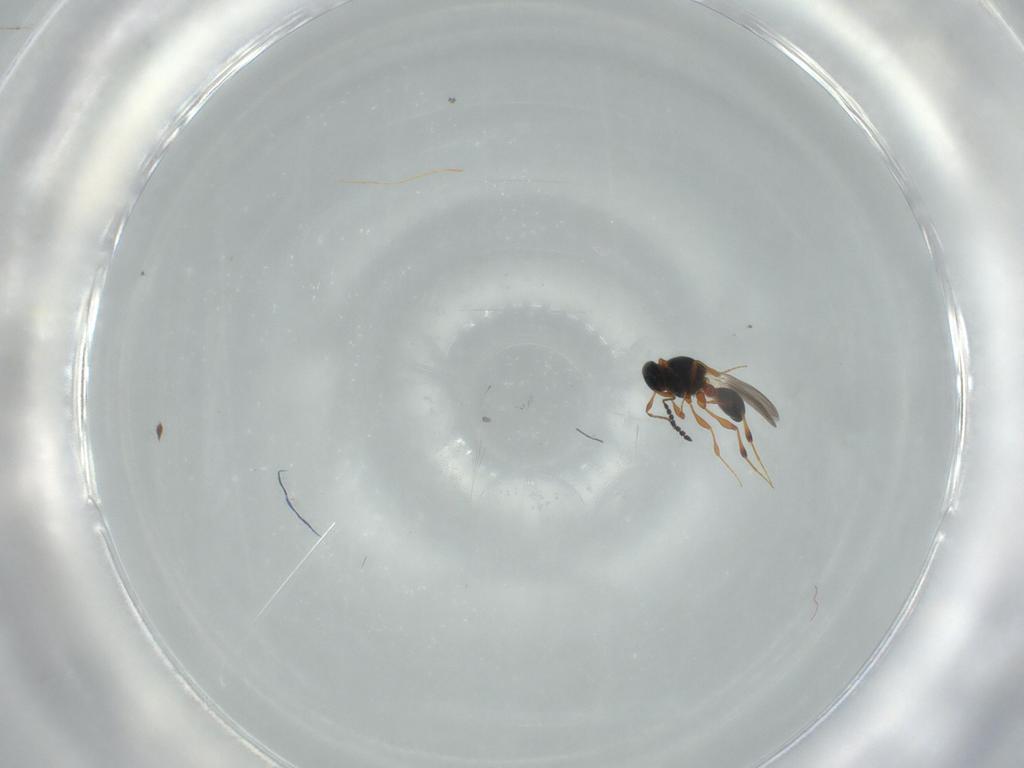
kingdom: Animalia
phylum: Arthropoda
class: Insecta
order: Hymenoptera
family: Platygastridae
